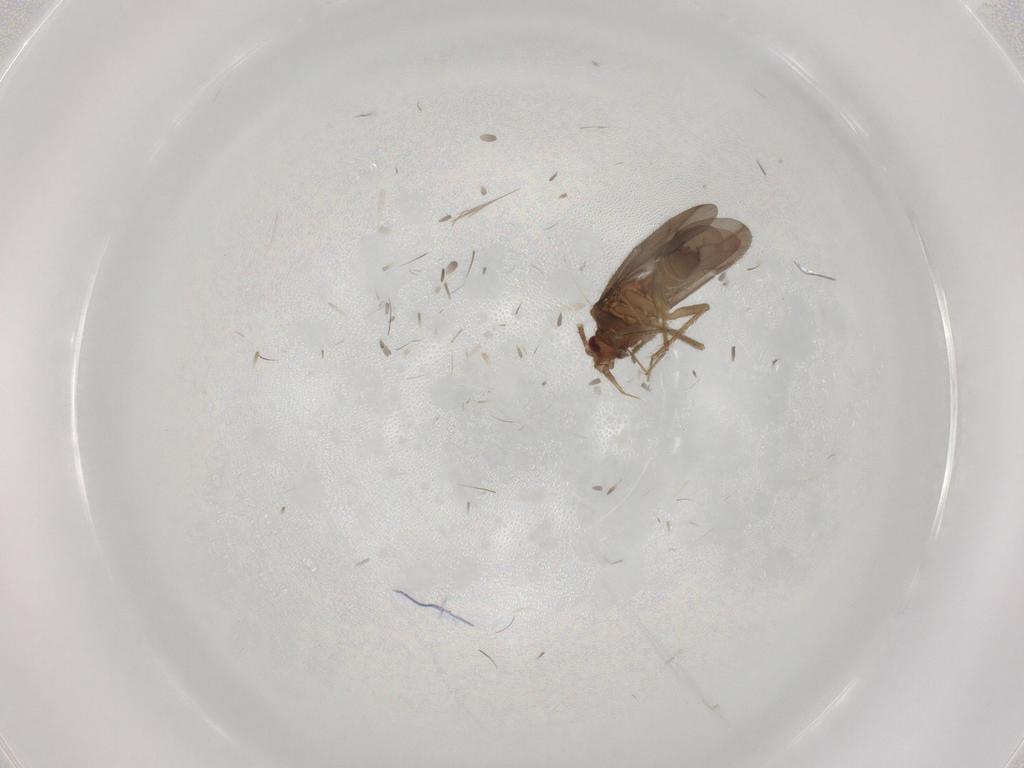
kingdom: Animalia
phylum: Arthropoda
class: Insecta
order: Hemiptera
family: Ceratocombidae
